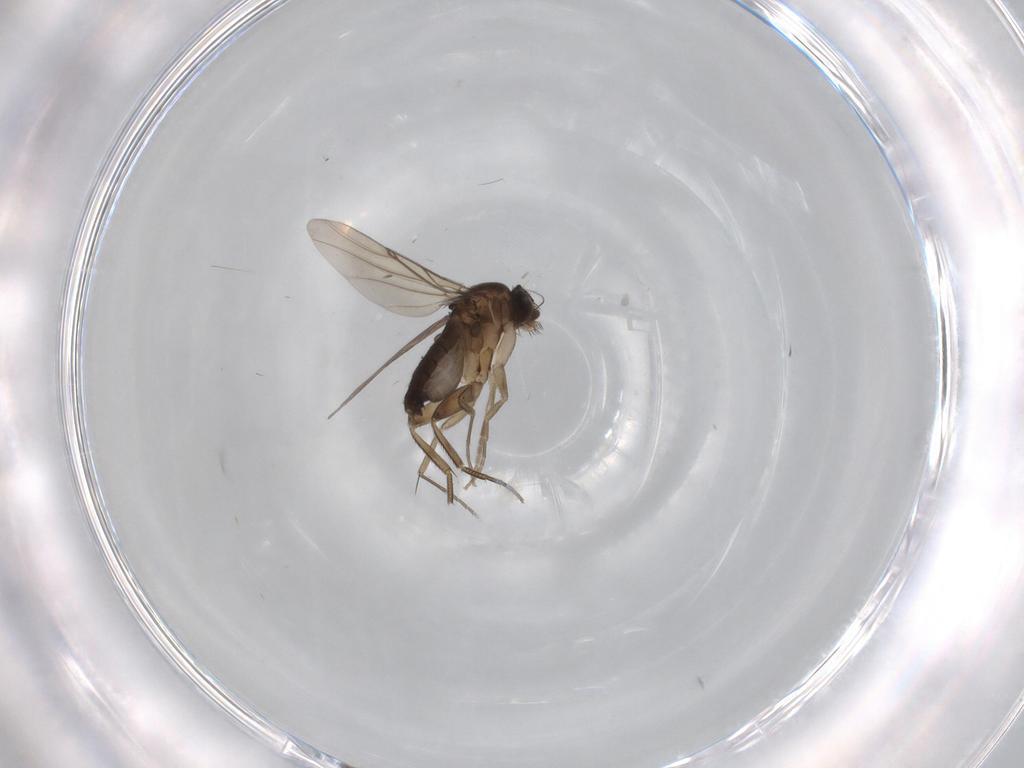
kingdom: Animalia
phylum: Arthropoda
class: Insecta
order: Diptera
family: Phoridae
